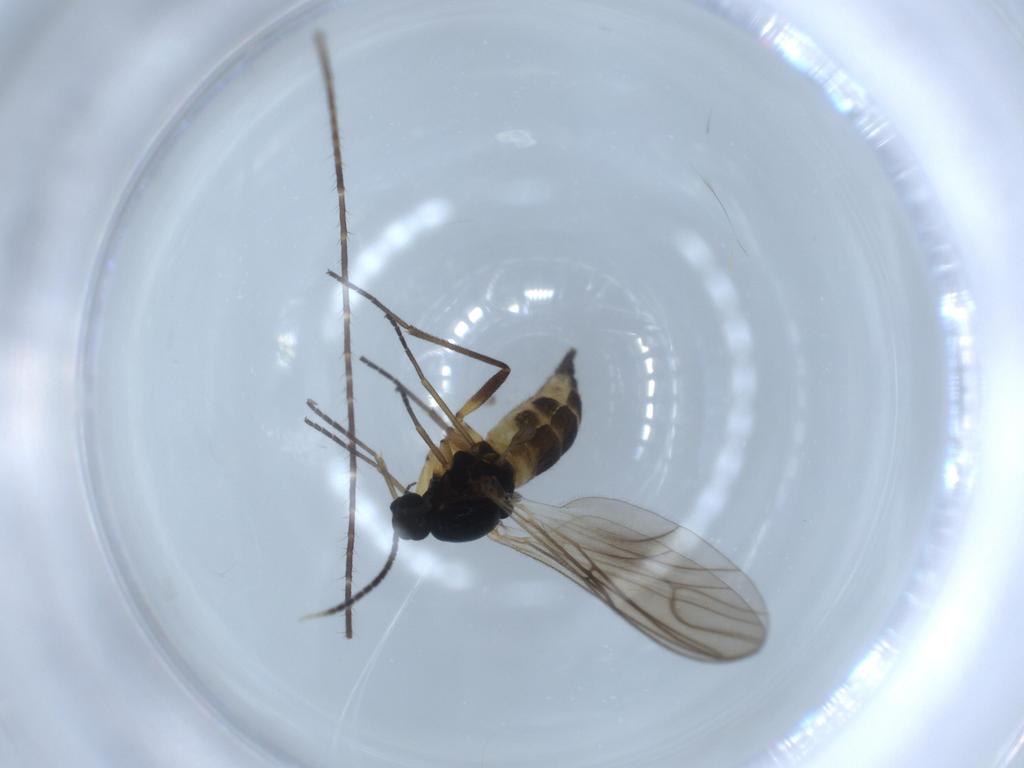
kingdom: Animalia
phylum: Arthropoda
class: Insecta
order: Diptera
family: Sciaridae
